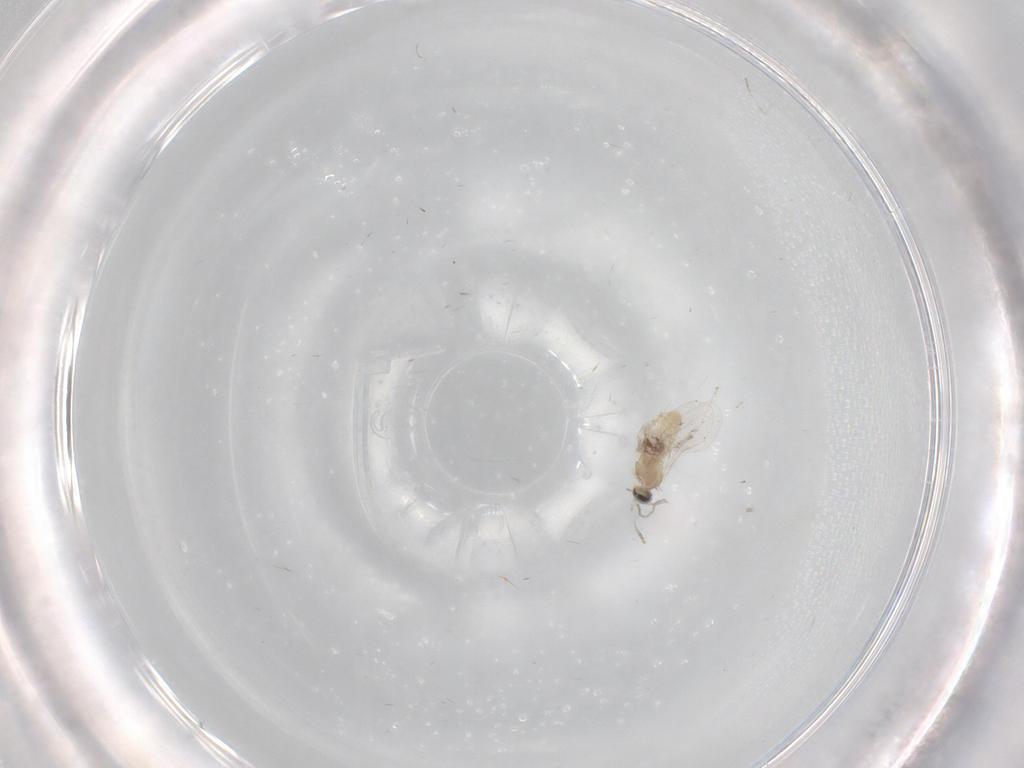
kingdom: Animalia
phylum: Arthropoda
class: Insecta
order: Diptera
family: Cecidomyiidae
